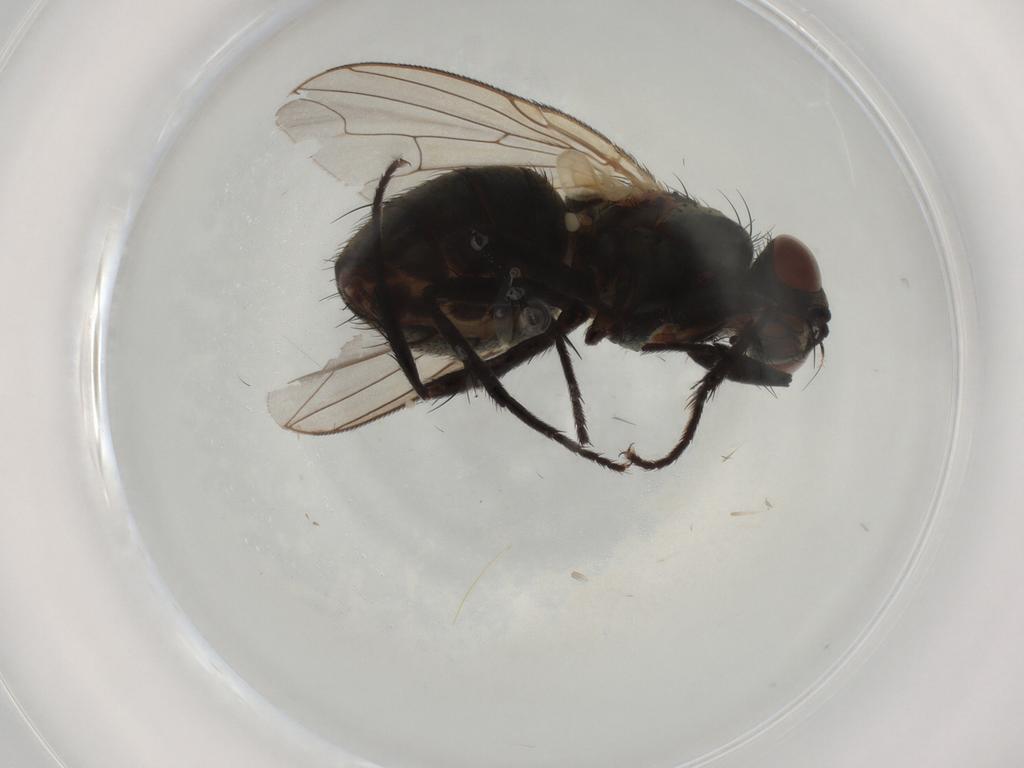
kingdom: Animalia
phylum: Arthropoda
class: Insecta
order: Diptera
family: Sarcophagidae
